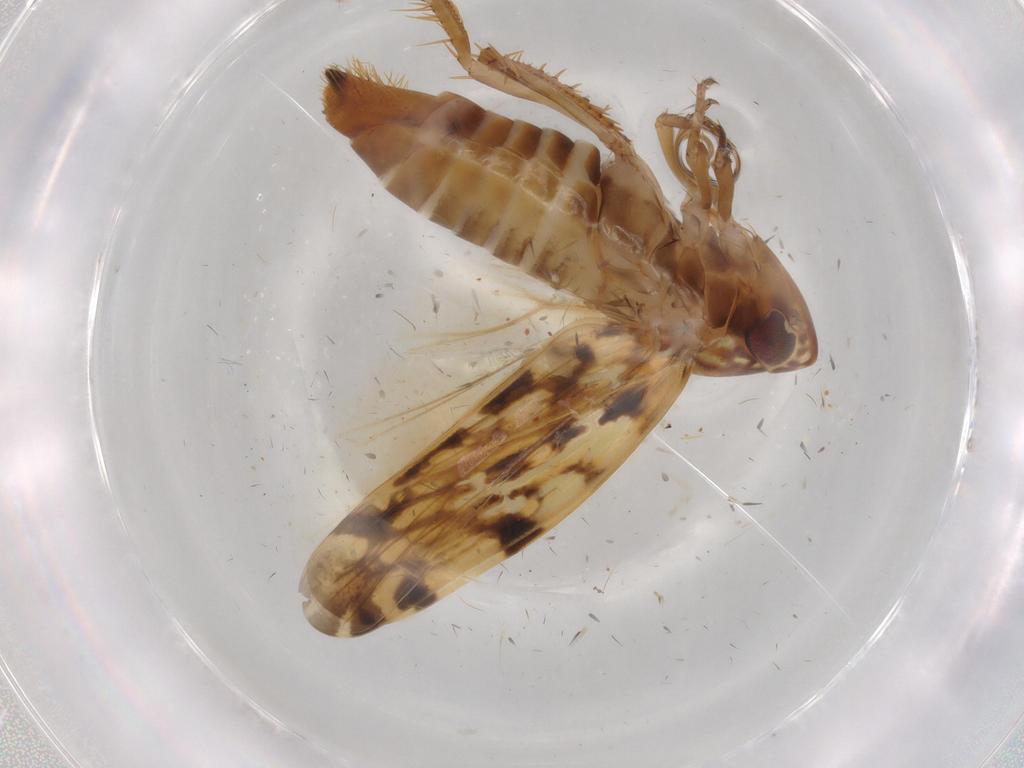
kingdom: Animalia
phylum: Arthropoda
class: Insecta
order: Hemiptera
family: Cicadellidae
